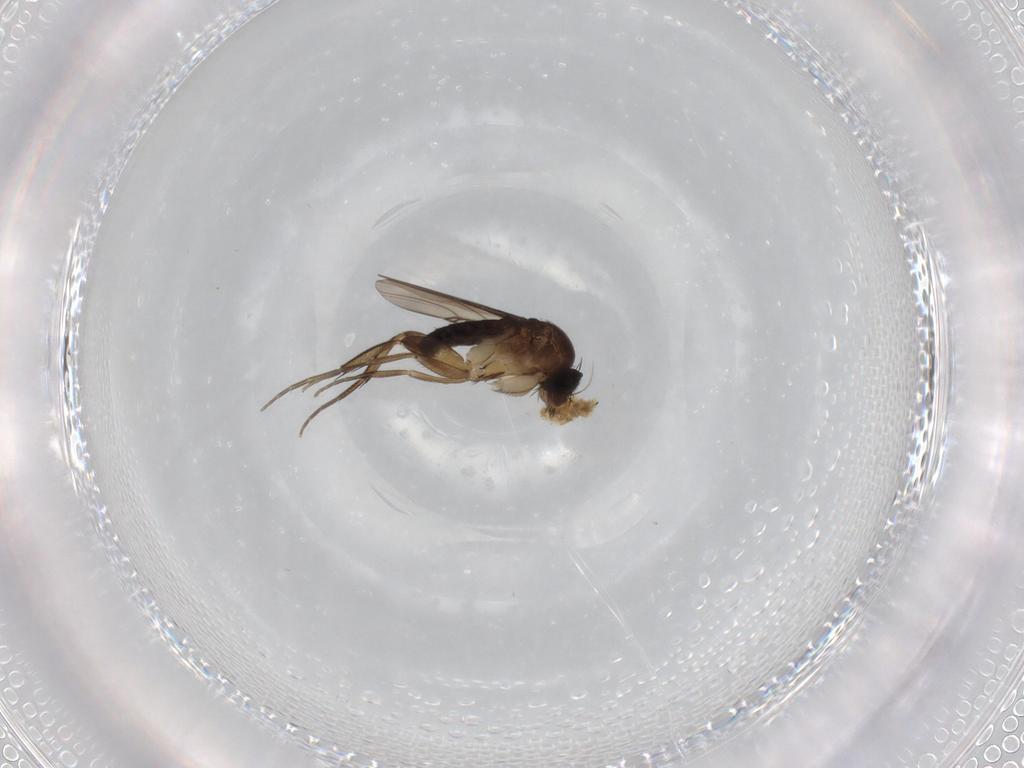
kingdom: Animalia
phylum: Arthropoda
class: Insecta
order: Diptera
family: Phoridae
